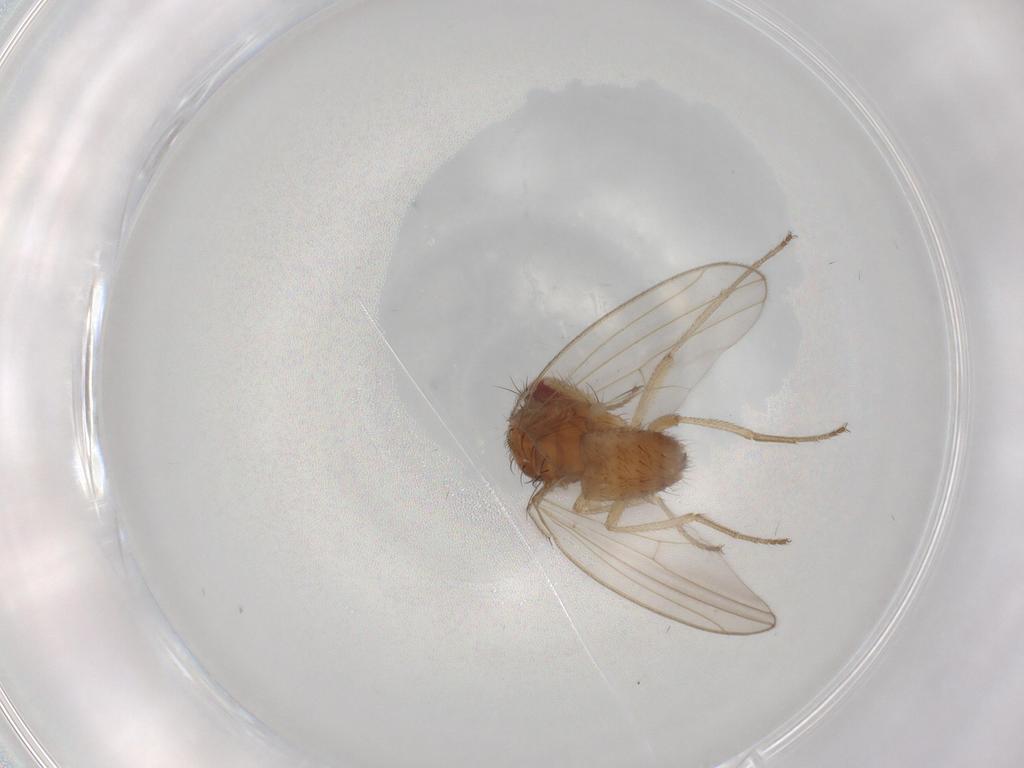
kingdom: Animalia
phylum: Arthropoda
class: Insecta
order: Diptera
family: Drosophilidae
